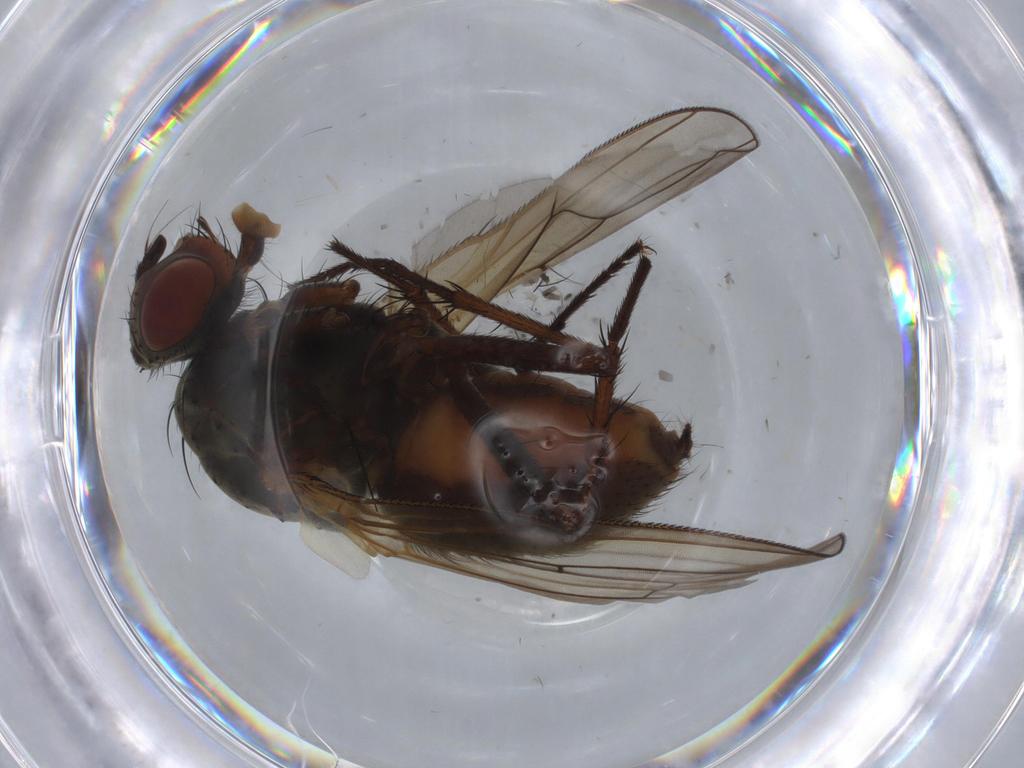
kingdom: Animalia
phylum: Arthropoda
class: Insecta
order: Diptera
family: Anthomyiidae
